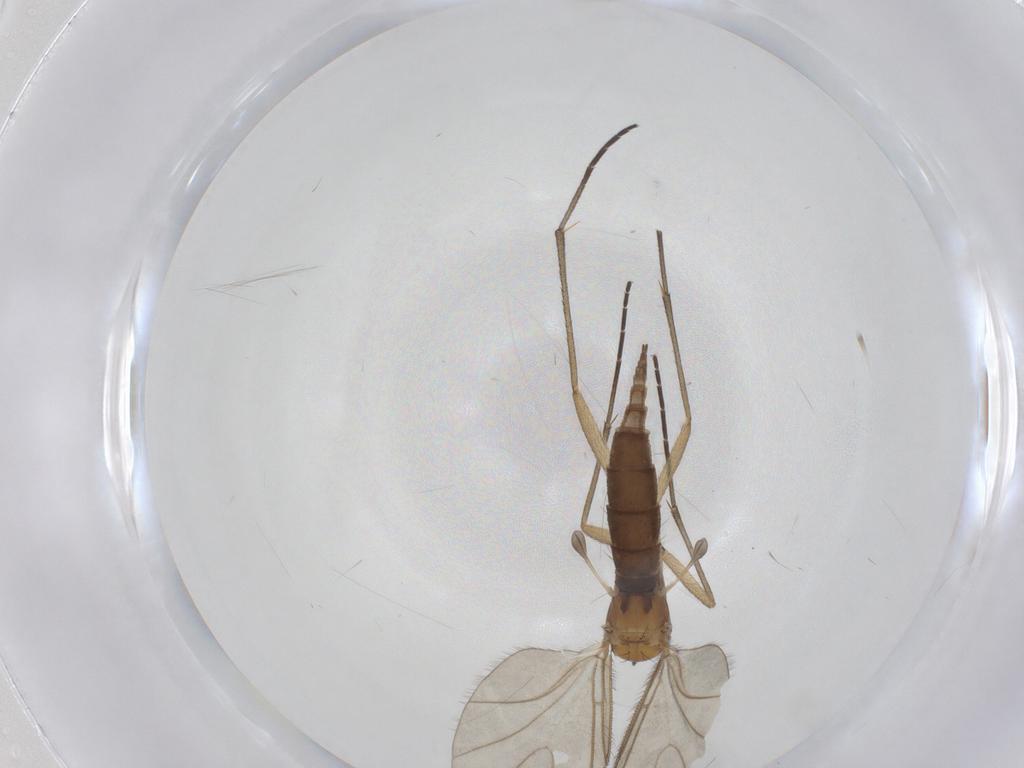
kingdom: Animalia
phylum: Arthropoda
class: Insecta
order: Diptera
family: Sciaridae
